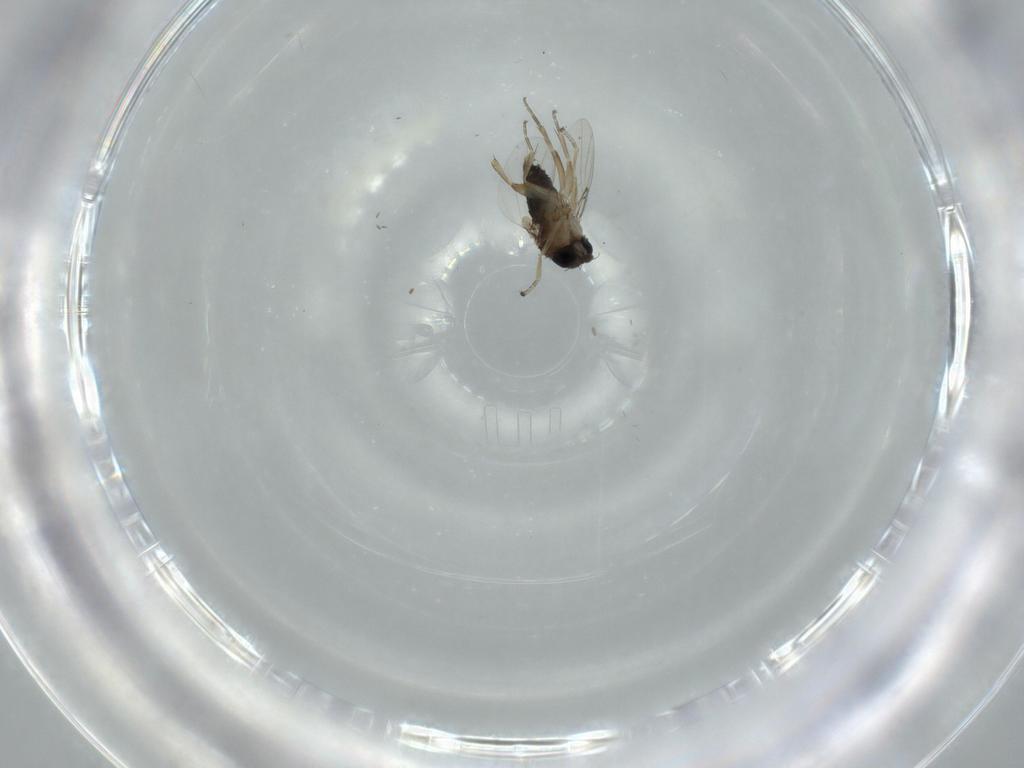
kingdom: Animalia
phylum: Arthropoda
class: Insecta
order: Diptera
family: Phoridae
